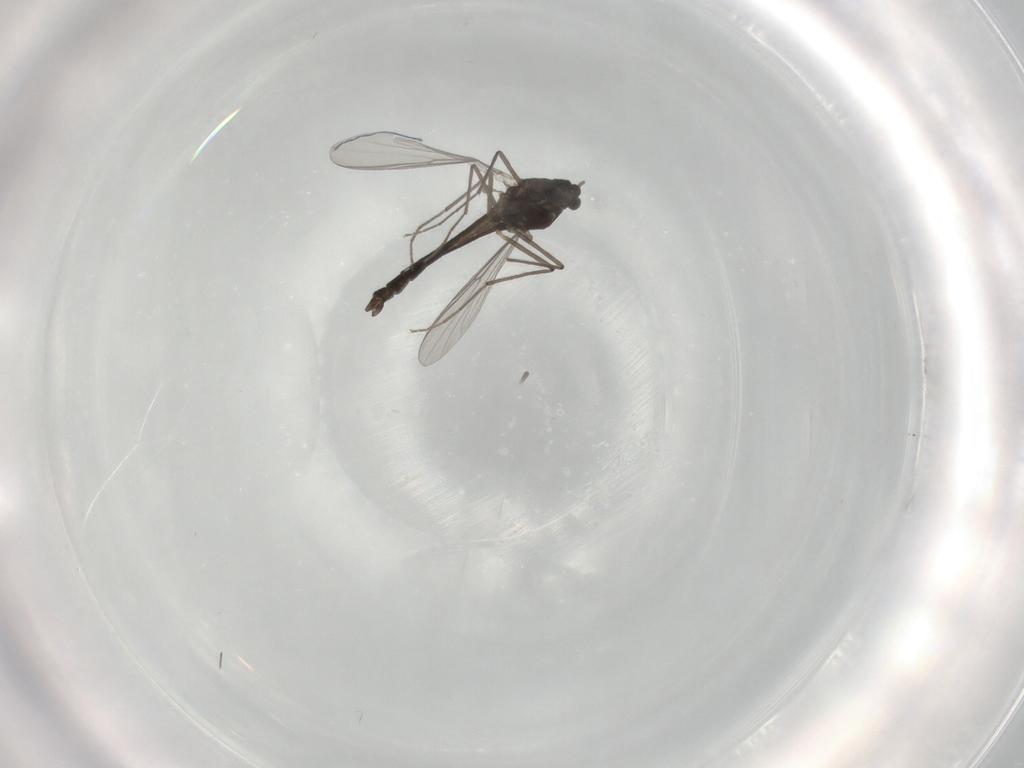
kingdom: Animalia
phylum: Arthropoda
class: Insecta
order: Diptera
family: Chironomidae
